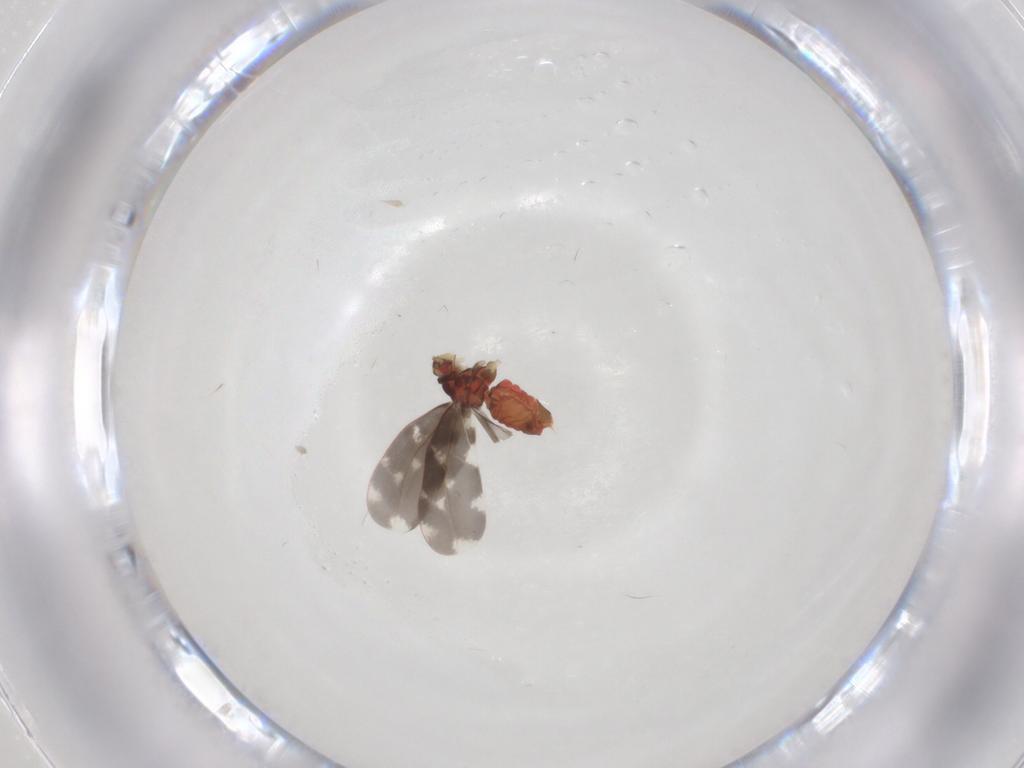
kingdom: Animalia
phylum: Arthropoda
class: Insecta
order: Hemiptera
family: Aleyrodidae
